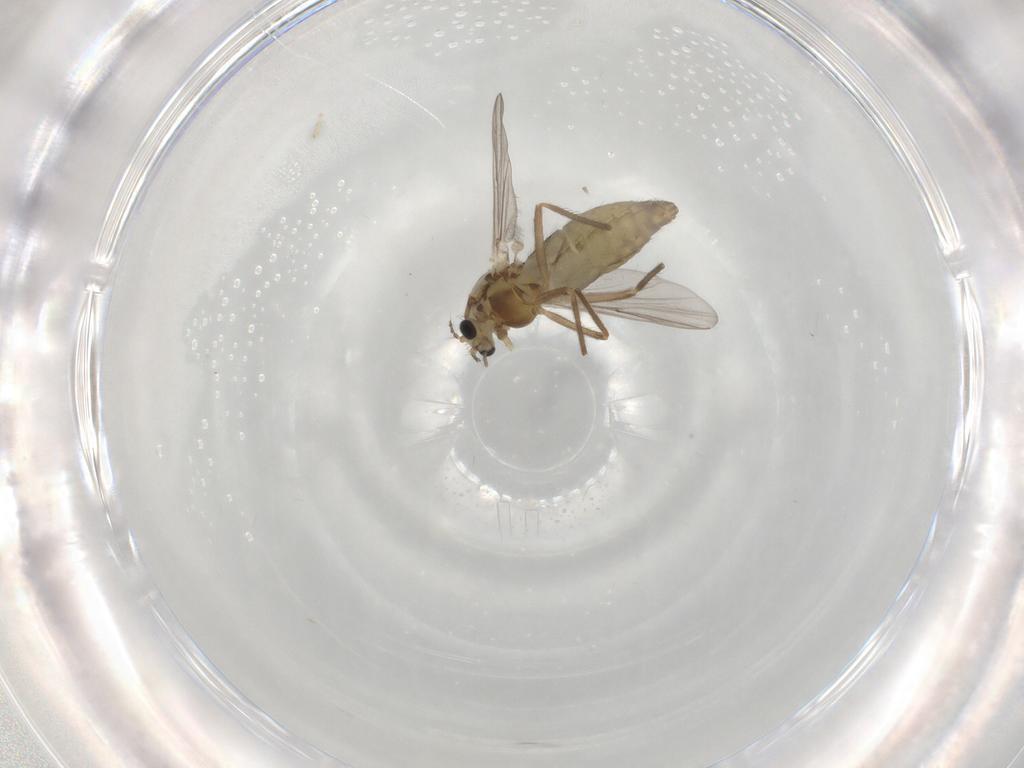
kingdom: Animalia
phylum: Arthropoda
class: Insecta
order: Diptera
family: Chironomidae
